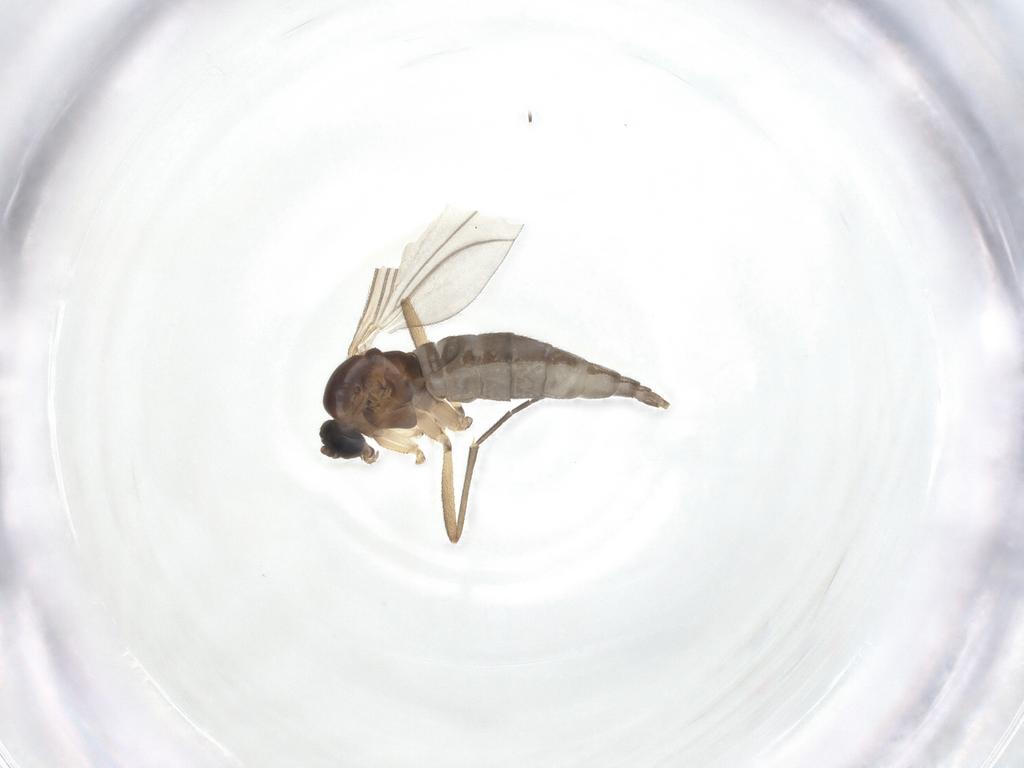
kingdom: Animalia
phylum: Arthropoda
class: Insecta
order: Diptera
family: Sciaridae
